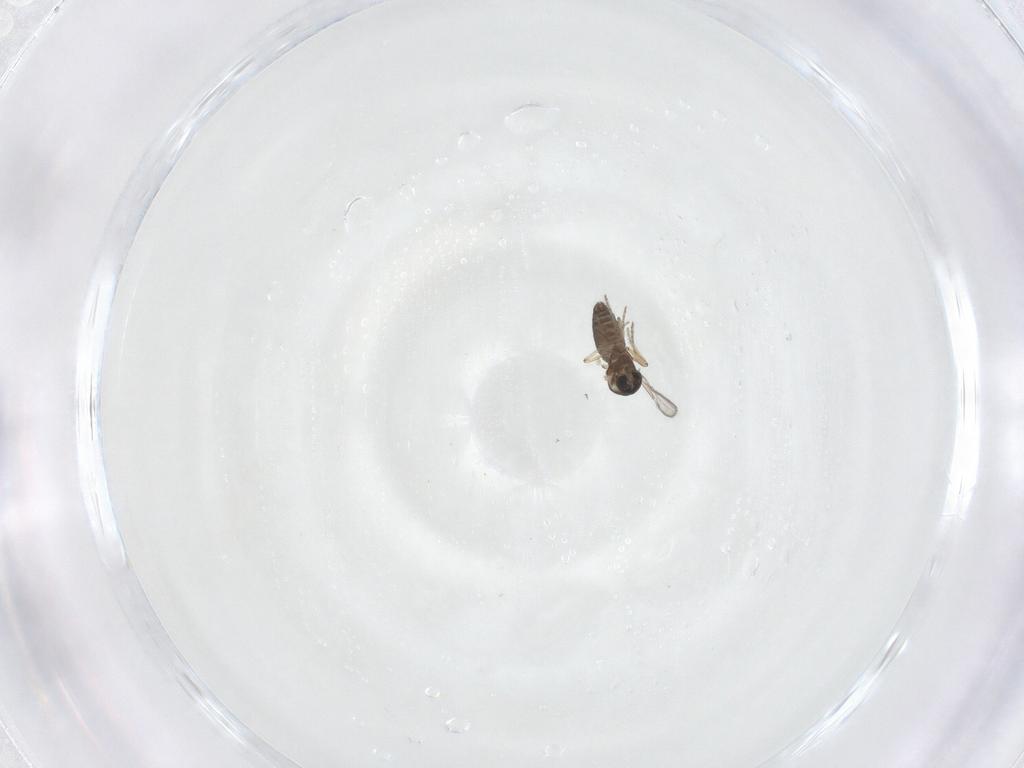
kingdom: Animalia
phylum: Arthropoda
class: Insecta
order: Diptera
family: Ceratopogonidae
